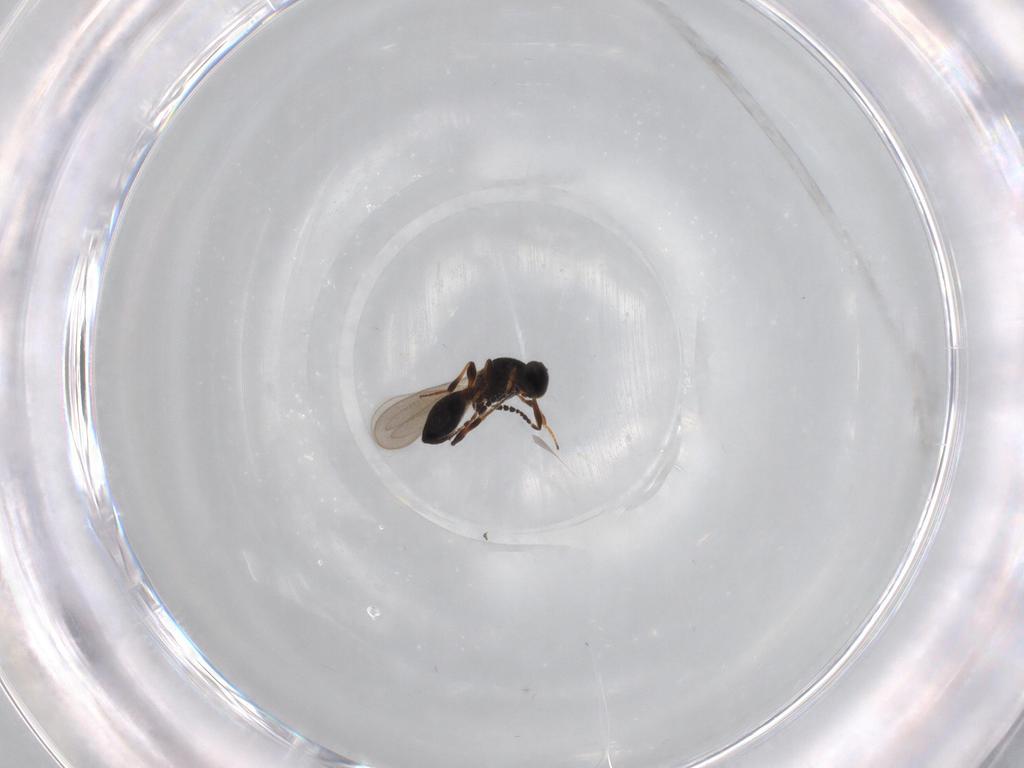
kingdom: Animalia
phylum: Arthropoda
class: Insecta
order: Hymenoptera
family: Platygastridae
